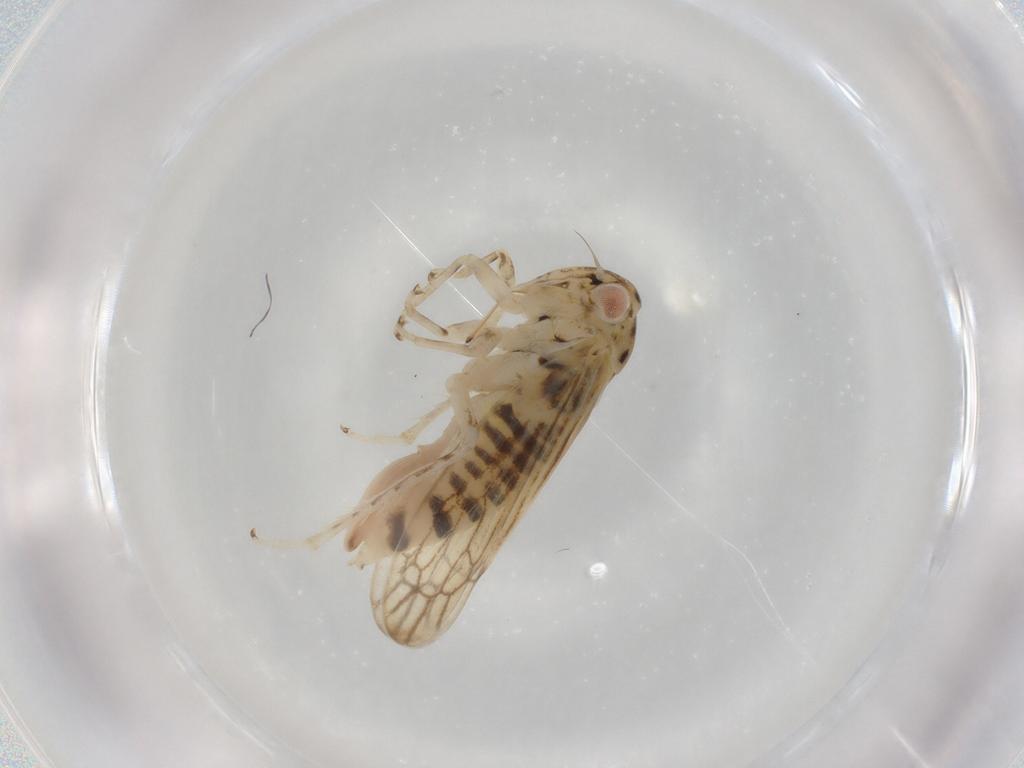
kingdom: Animalia
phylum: Arthropoda
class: Insecta
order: Hemiptera
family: Cicadellidae
